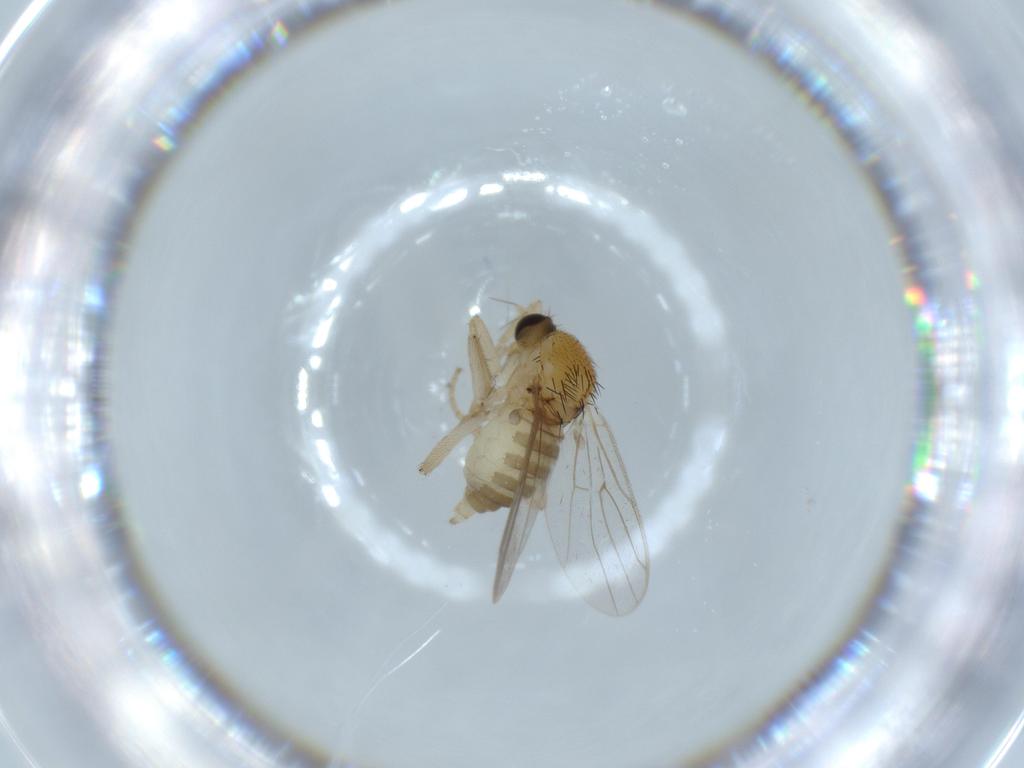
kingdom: Animalia
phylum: Arthropoda
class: Insecta
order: Diptera
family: Hybotidae
